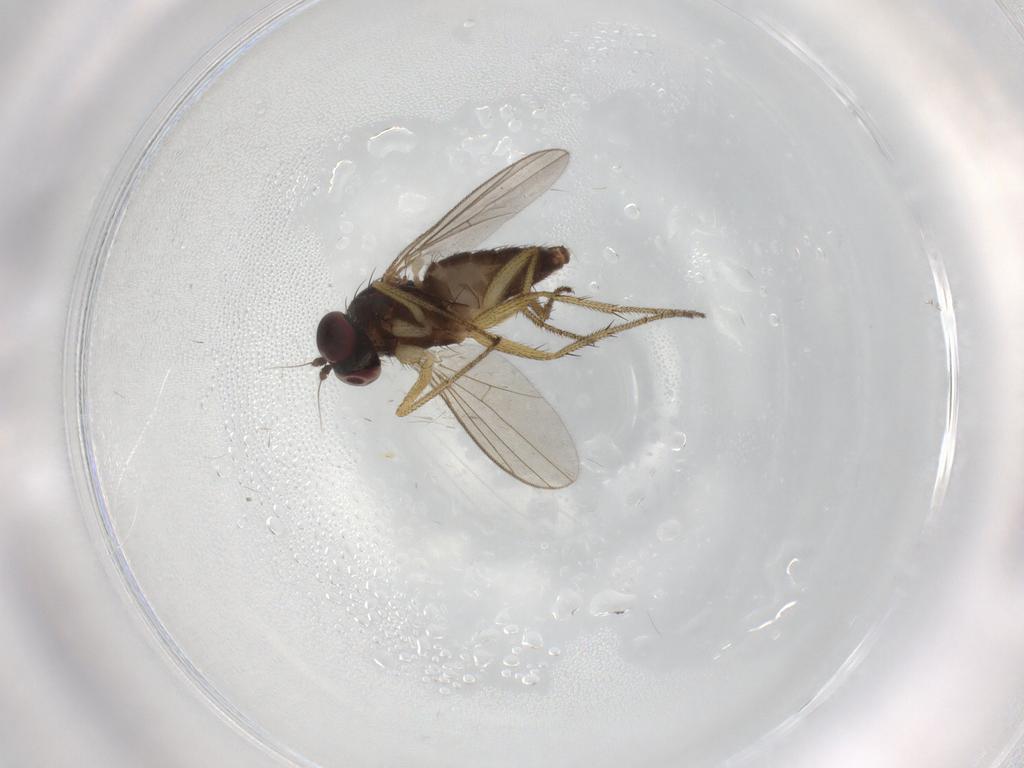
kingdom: Animalia
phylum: Arthropoda
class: Insecta
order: Diptera
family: Dolichopodidae
